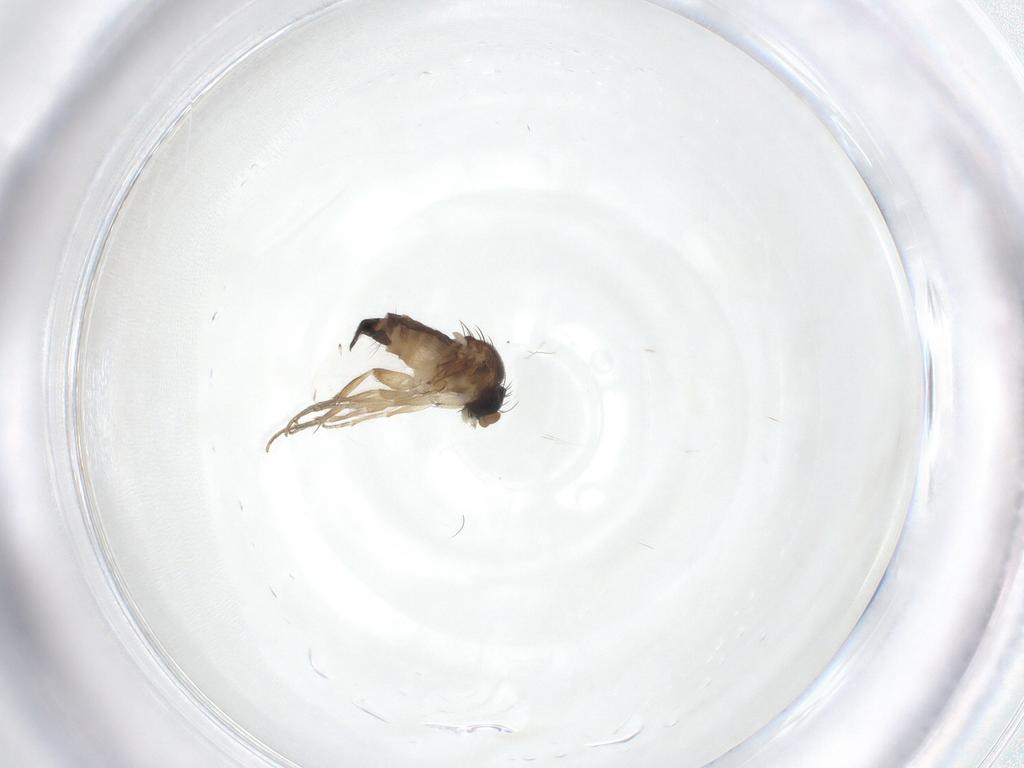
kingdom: Animalia
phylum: Arthropoda
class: Insecta
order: Diptera
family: Phoridae
